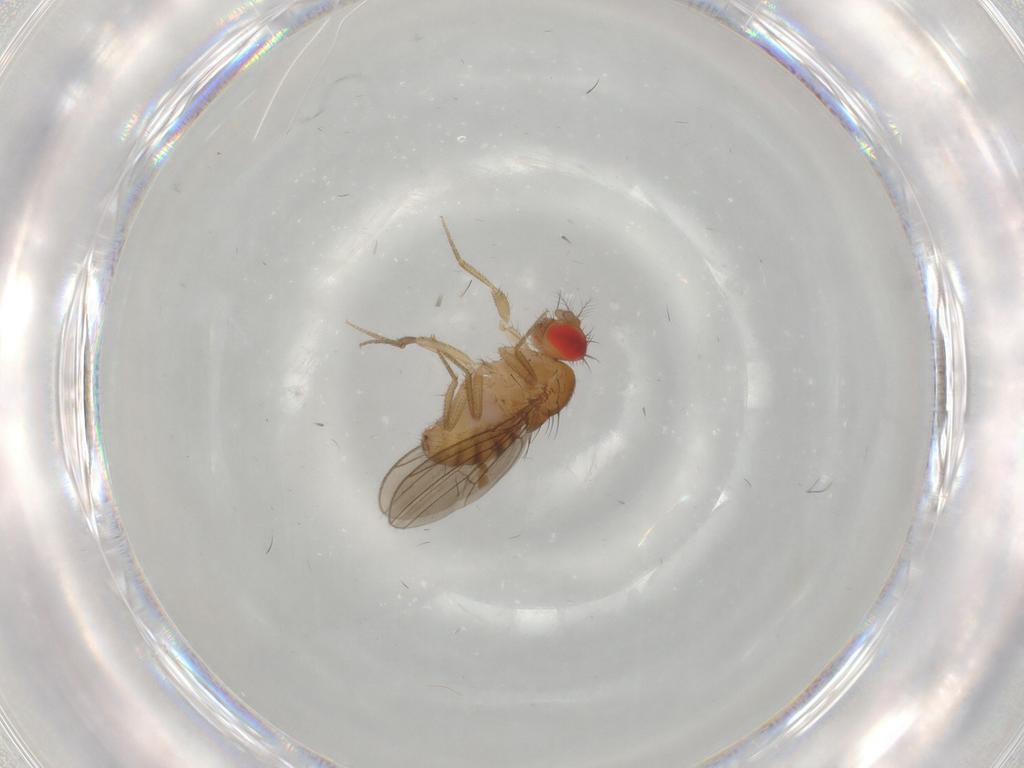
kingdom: Animalia
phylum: Arthropoda
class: Insecta
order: Diptera
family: Drosophilidae
